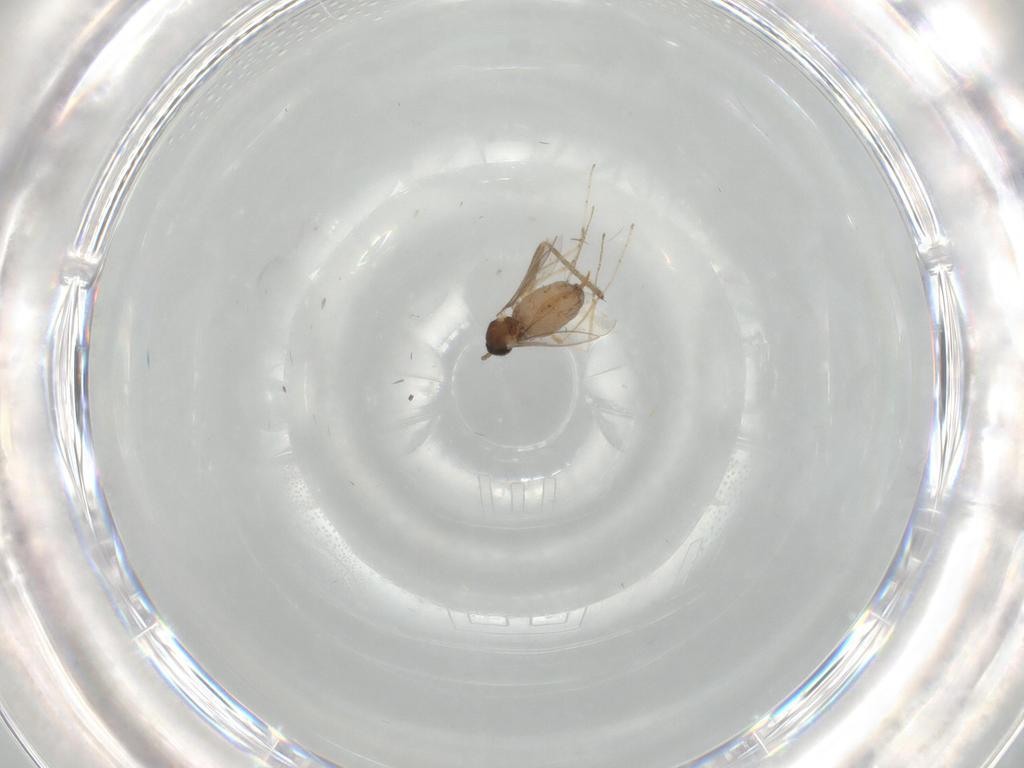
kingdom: Animalia
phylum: Arthropoda
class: Insecta
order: Diptera
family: Cecidomyiidae
